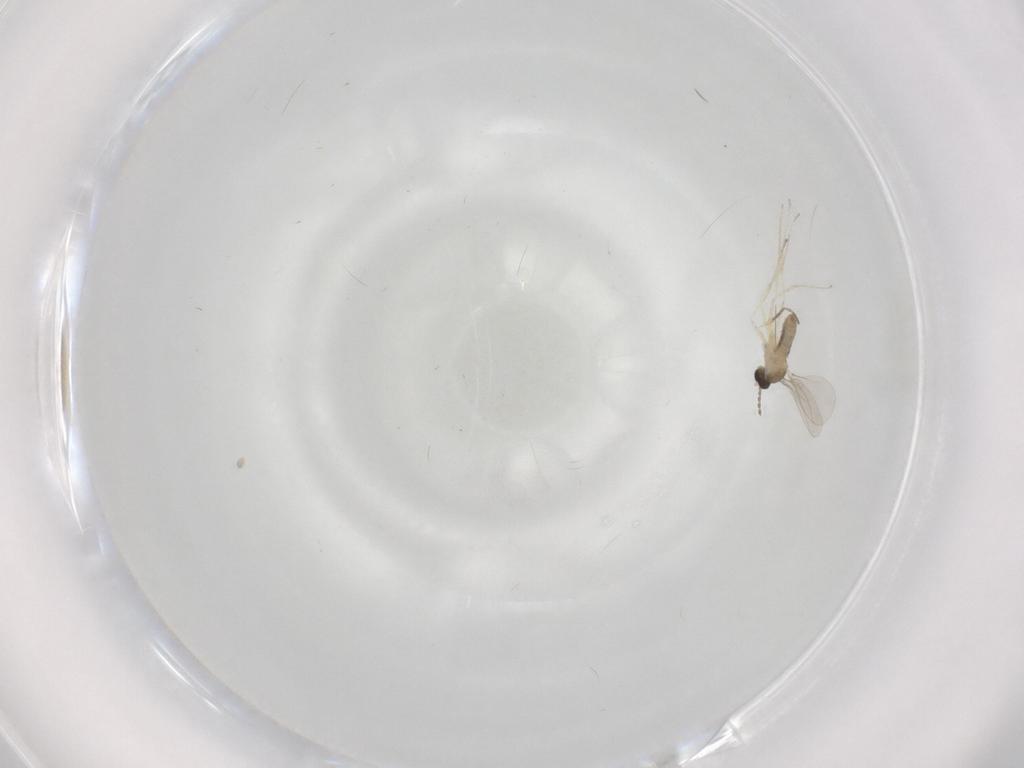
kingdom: Animalia
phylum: Arthropoda
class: Insecta
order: Diptera
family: Cecidomyiidae
